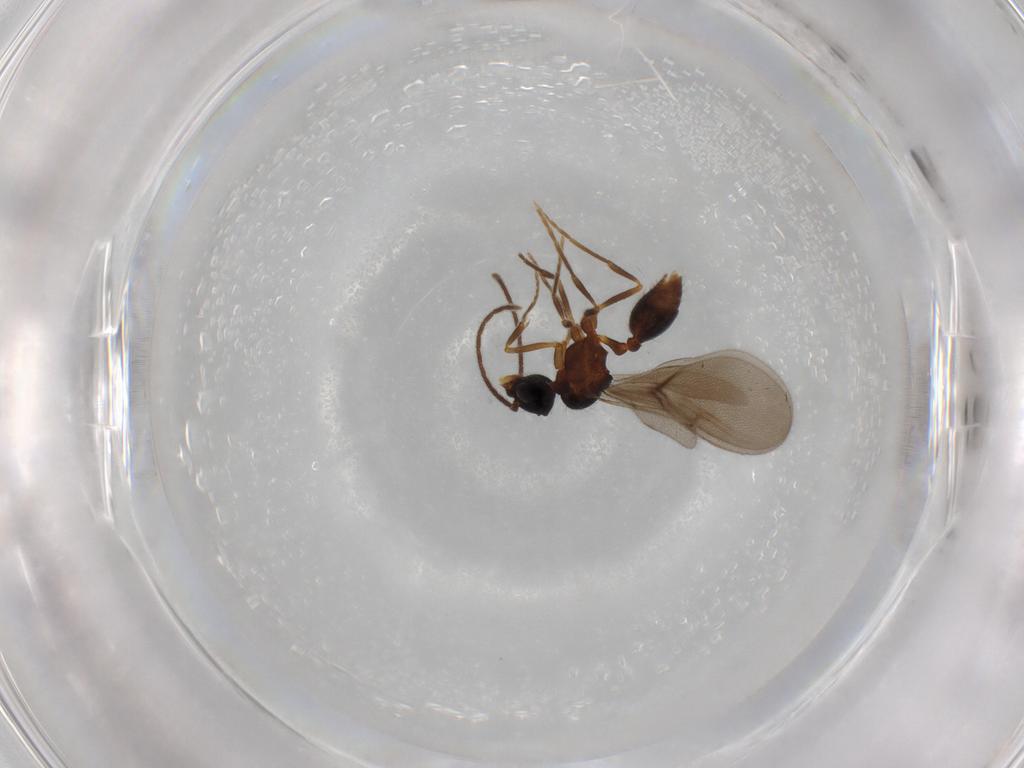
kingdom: Animalia
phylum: Arthropoda
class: Insecta
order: Hymenoptera
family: Formicidae
